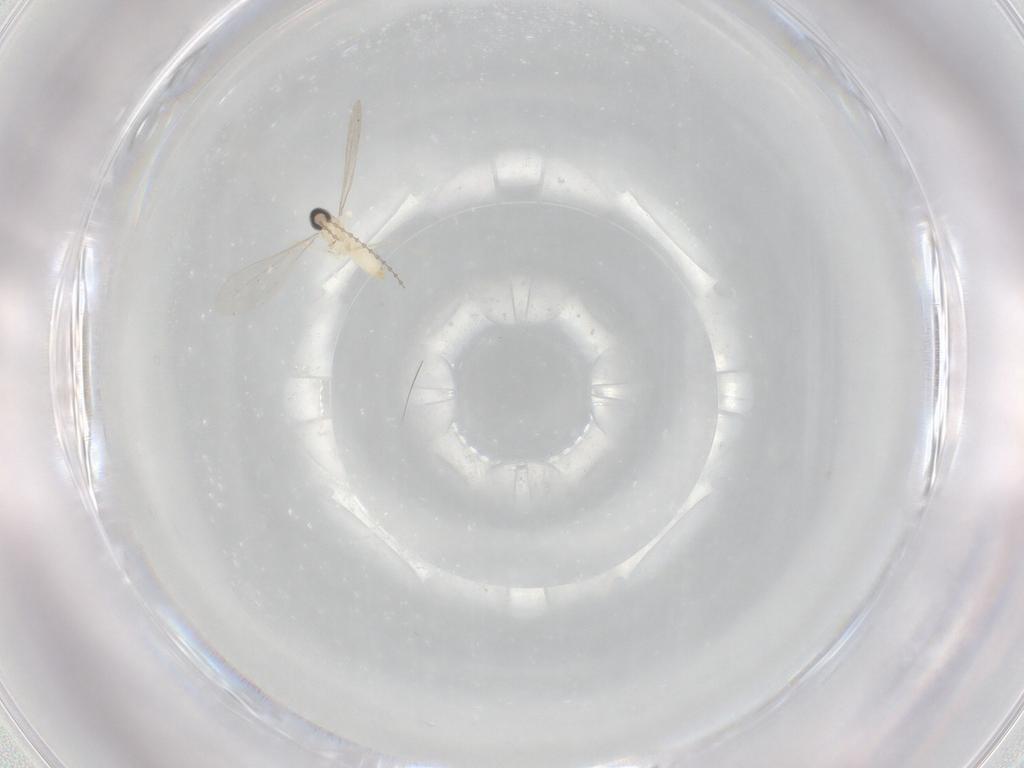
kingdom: Animalia
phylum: Arthropoda
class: Insecta
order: Diptera
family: Cecidomyiidae
